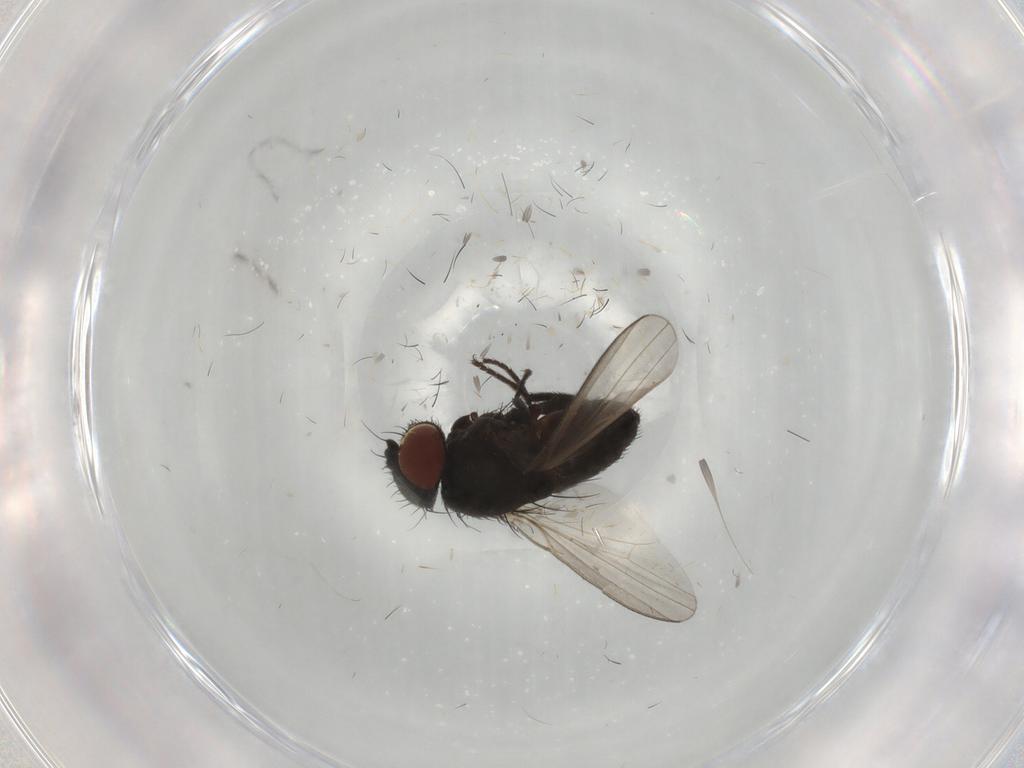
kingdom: Animalia
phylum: Arthropoda
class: Insecta
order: Diptera
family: Milichiidae
